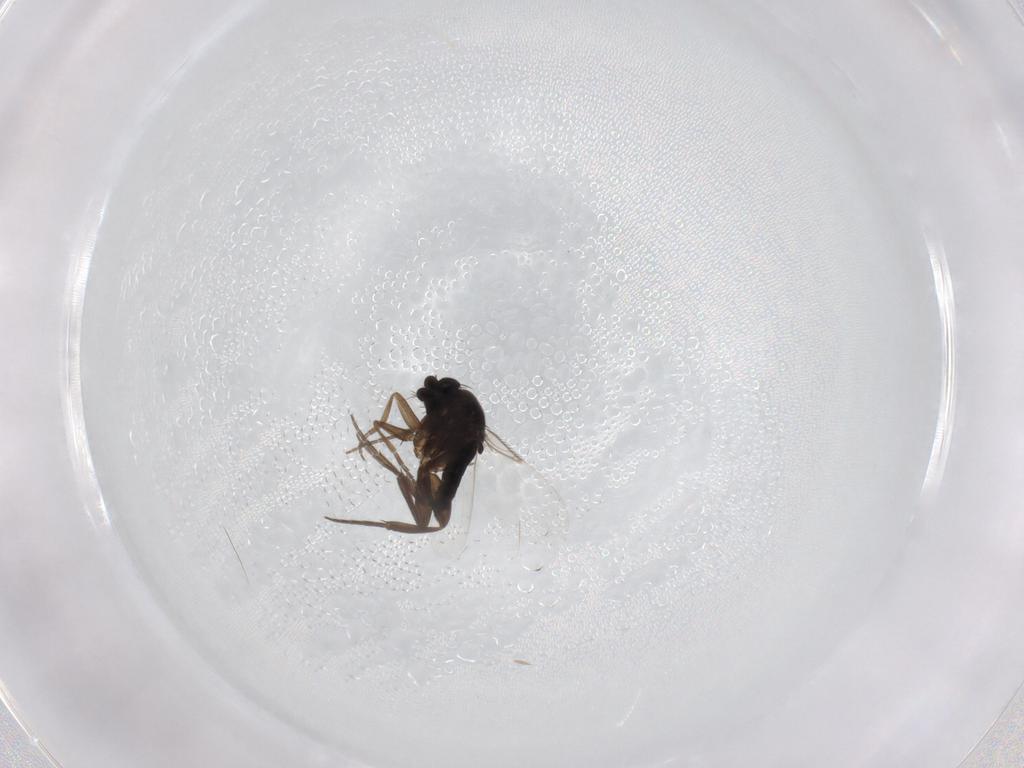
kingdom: Animalia
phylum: Arthropoda
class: Insecta
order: Diptera
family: Phoridae
